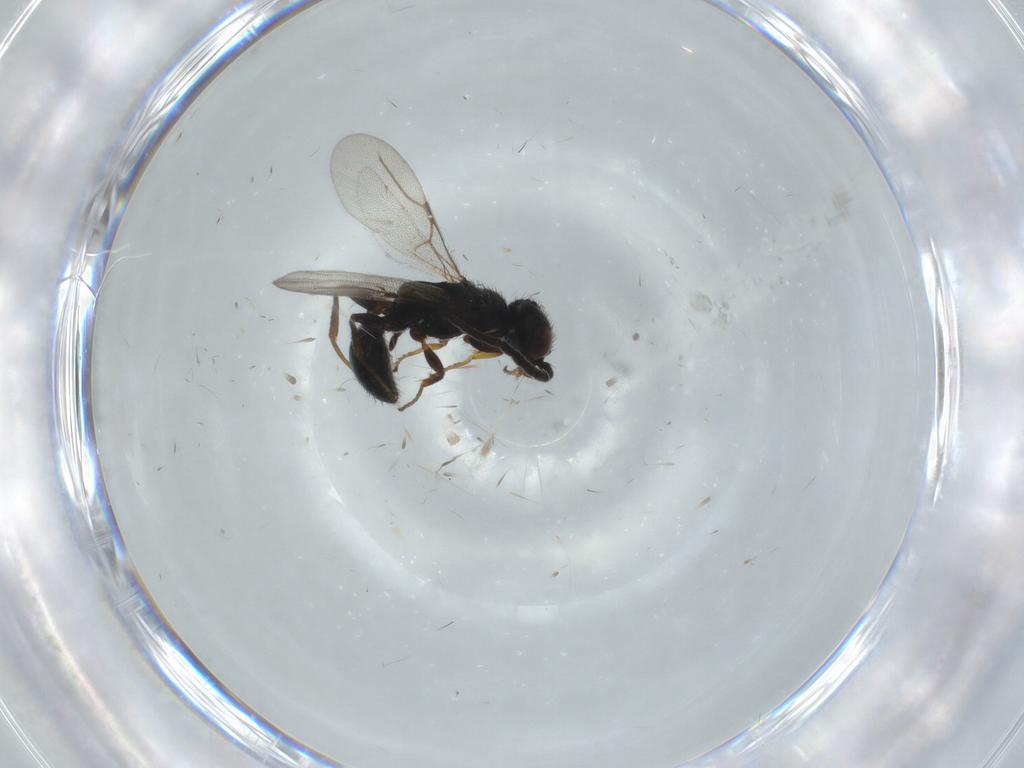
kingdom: Animalia
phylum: Arthropoda
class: Insecta
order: Hymenoptera
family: Bethylidae
